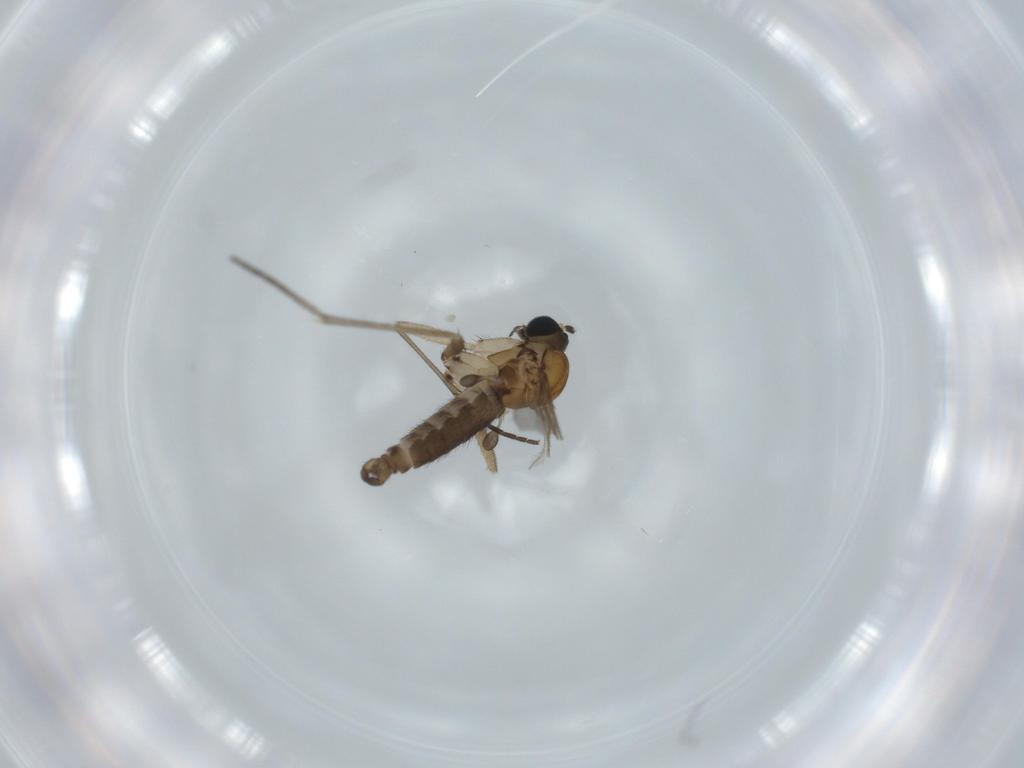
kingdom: Animalia
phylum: Arthropoda
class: Insecta
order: Diptera
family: Sciaridae
